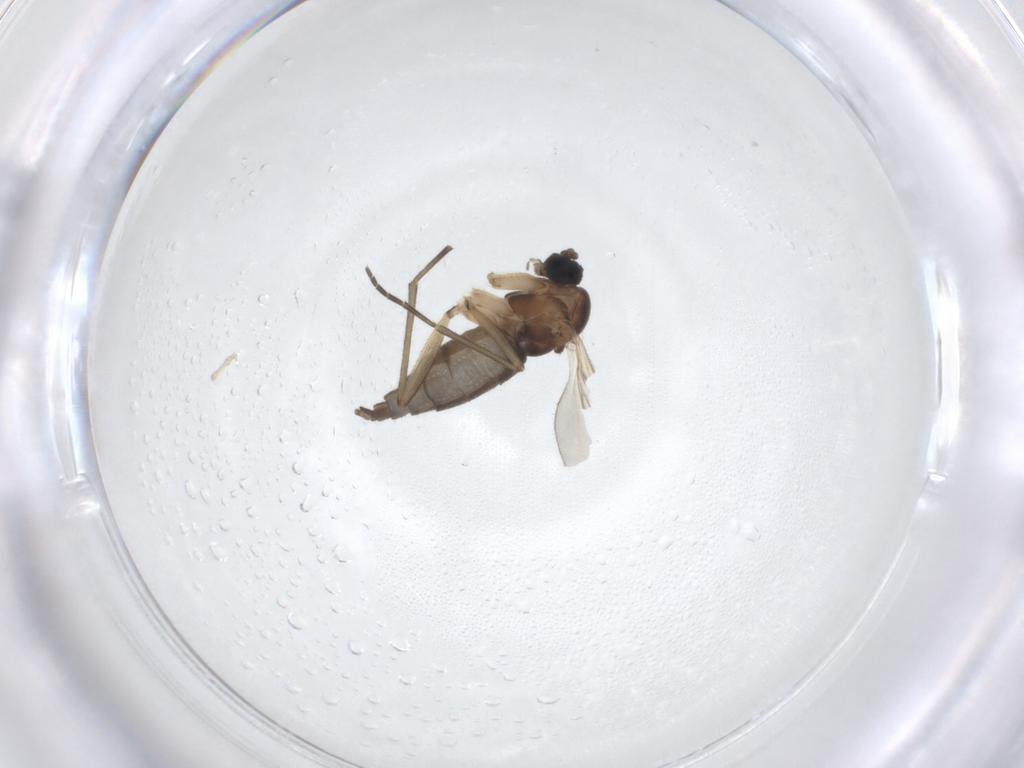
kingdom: Animalia
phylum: Arthropoda
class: Insecta
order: Diptera
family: Sciaridae
